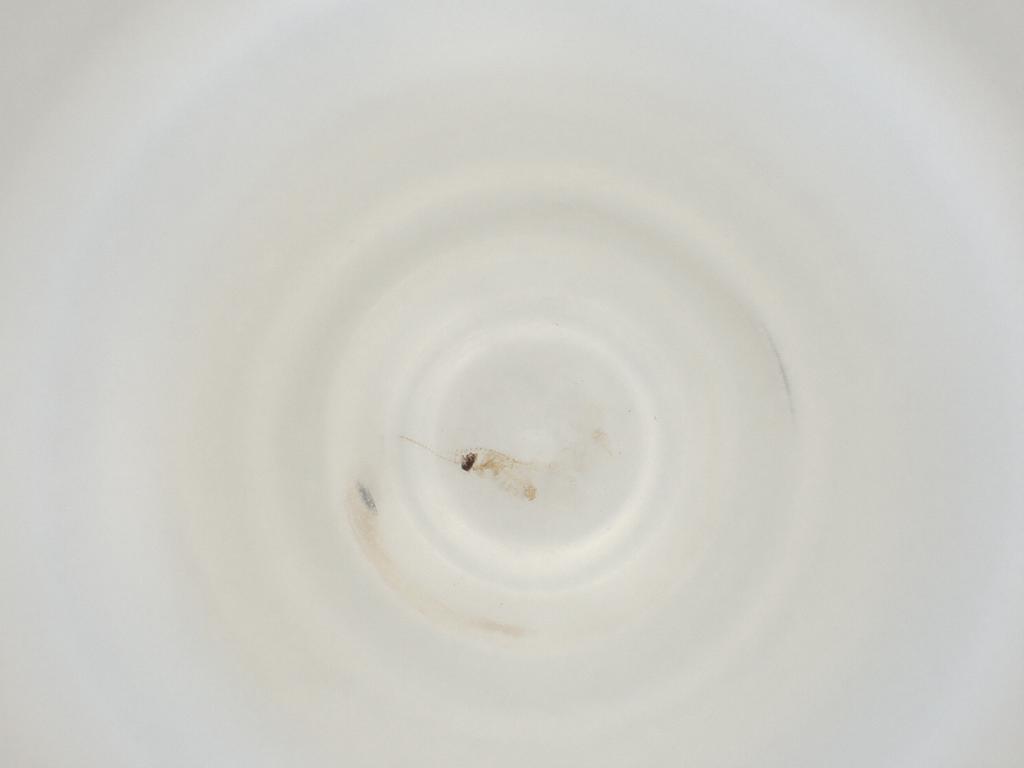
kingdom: Animalia
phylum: Arthropoda
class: Insecta
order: Diptera
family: Cecidomyiidae
